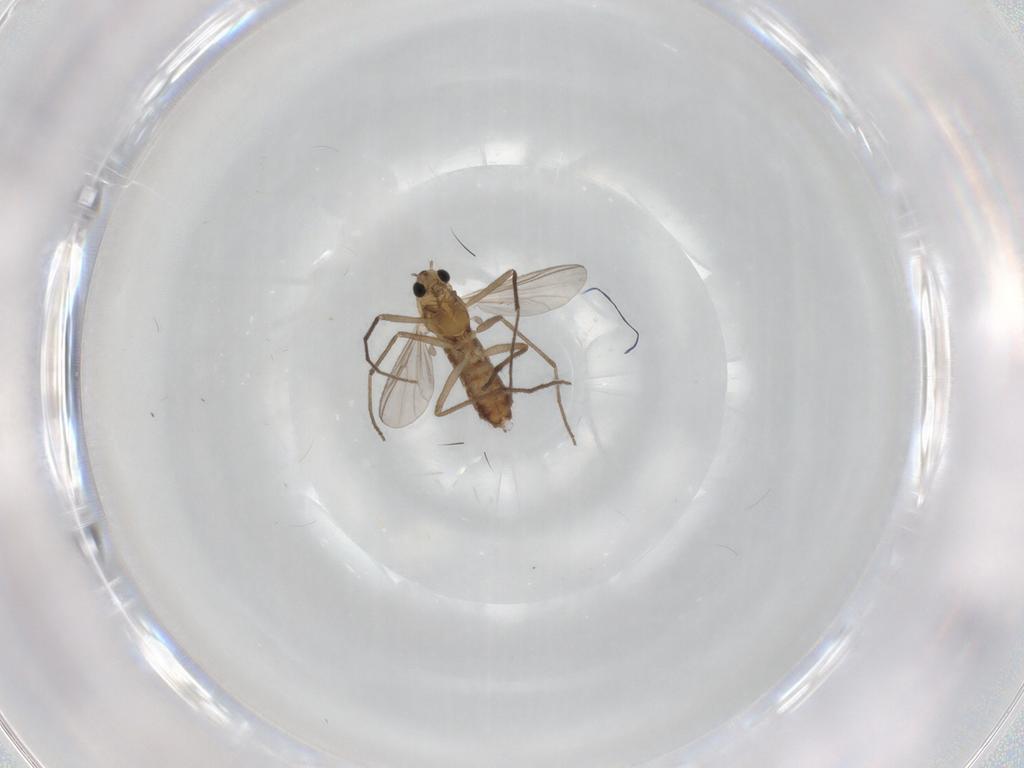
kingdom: Animalia
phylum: Arthropoda
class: Insecta
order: Diptera
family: Chironomidae
